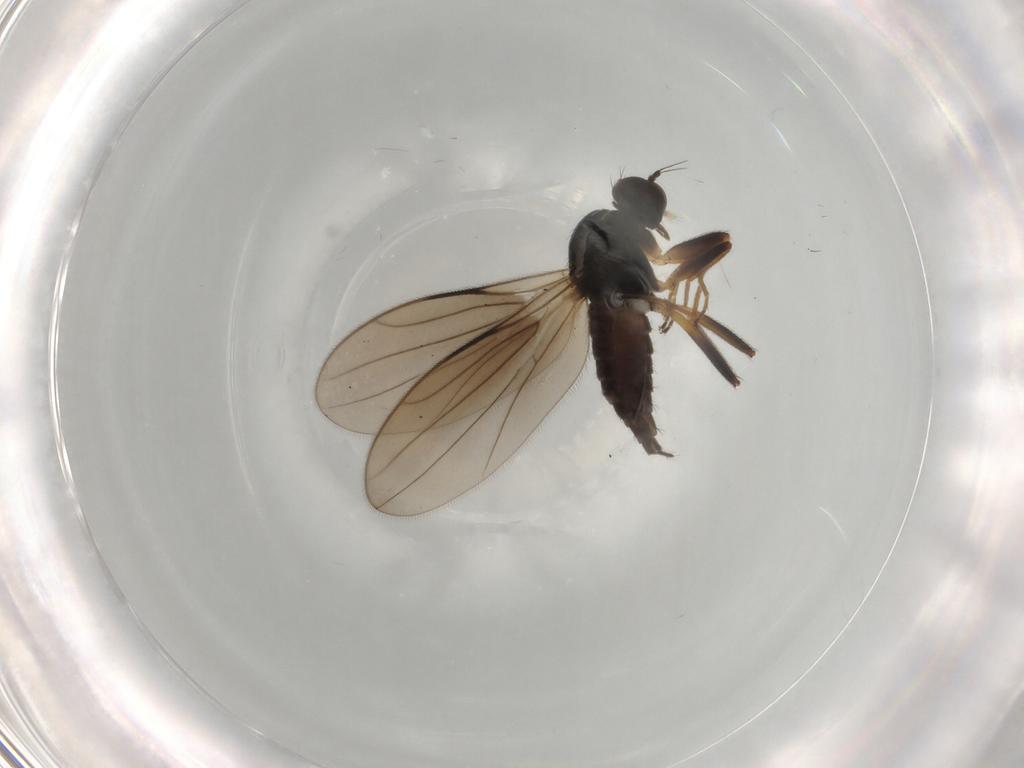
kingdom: Animalia
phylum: Arthropoda
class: Insecta
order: Diptera
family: Hybotidae
